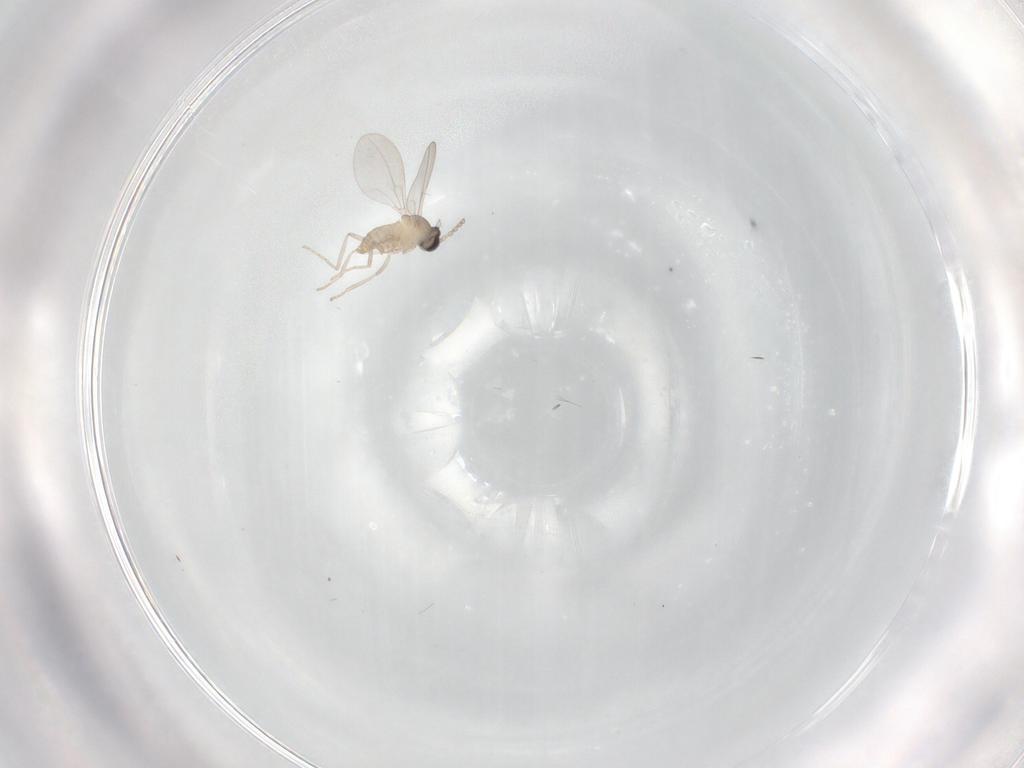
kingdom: Animalia
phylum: Arthropoda
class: Insecta
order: Diptera
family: Cecidomyiidae
